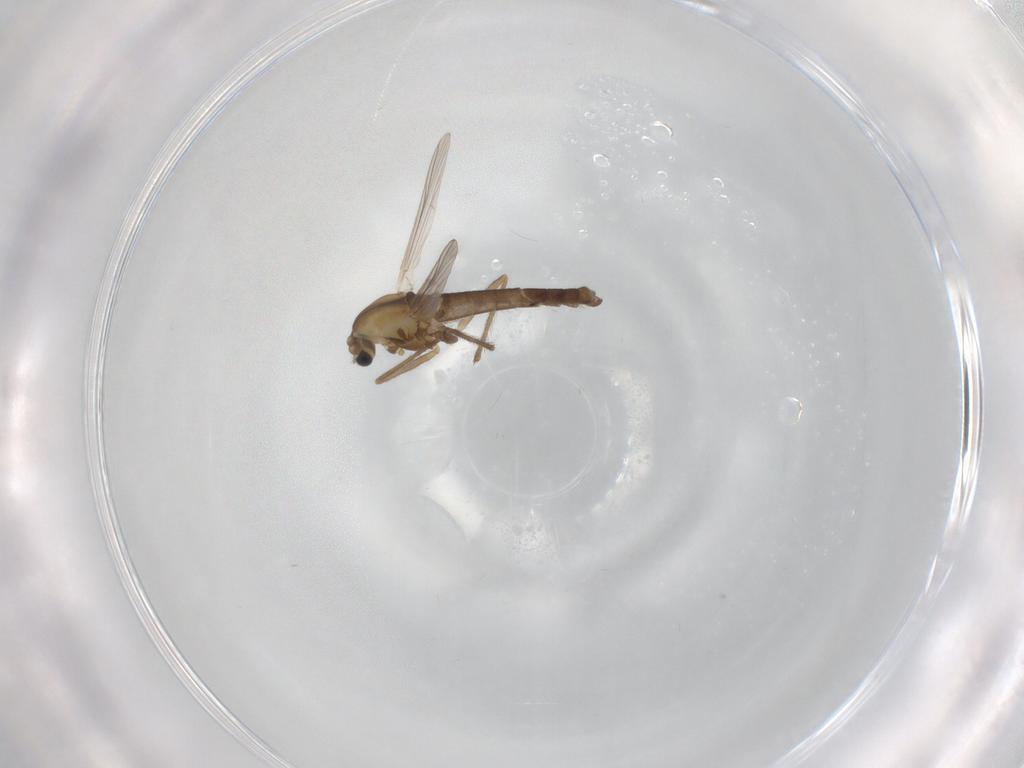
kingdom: Animalia
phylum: Arthropoda
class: Insecta
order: Diptera
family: Chironomidae
